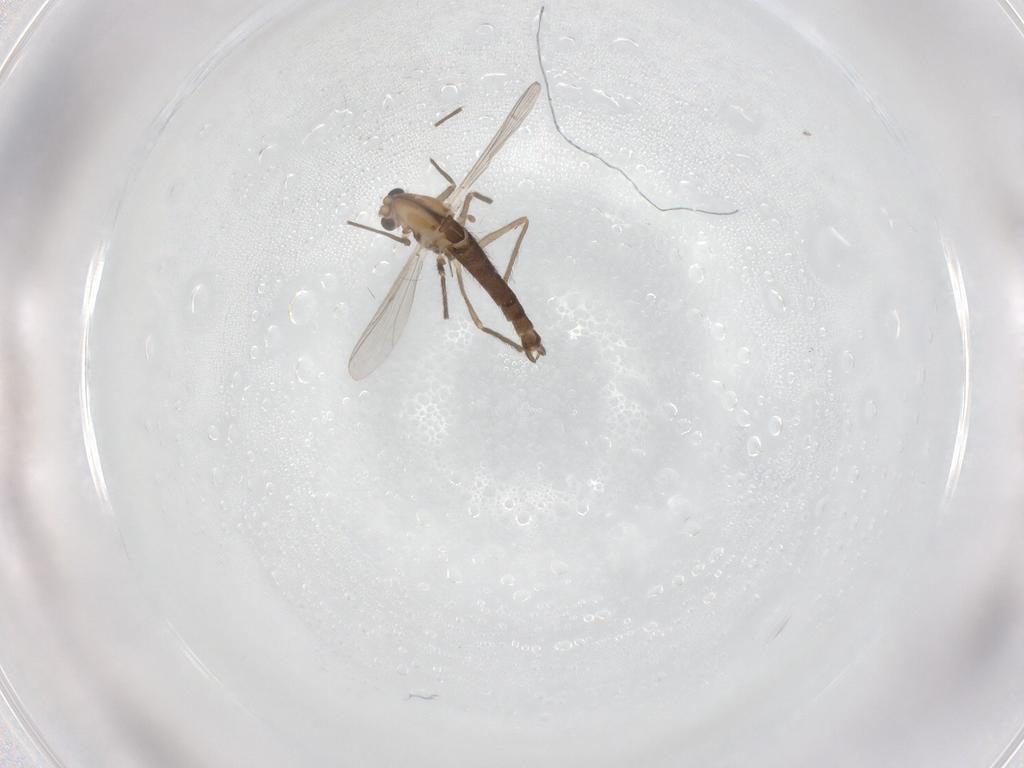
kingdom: Animalia
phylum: Arthropoda
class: Insecta
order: Diptera
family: Chironomidae
